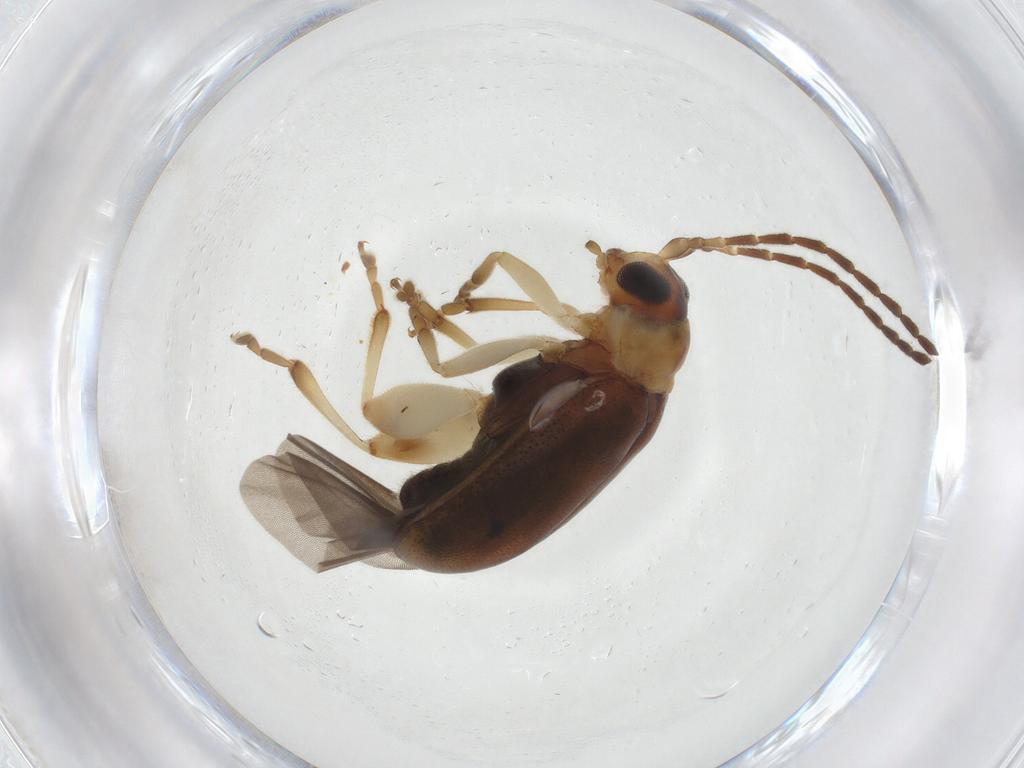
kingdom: Animalia
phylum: Arthropoda
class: Insecta
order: Coleoptera
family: Chrysomelidae
